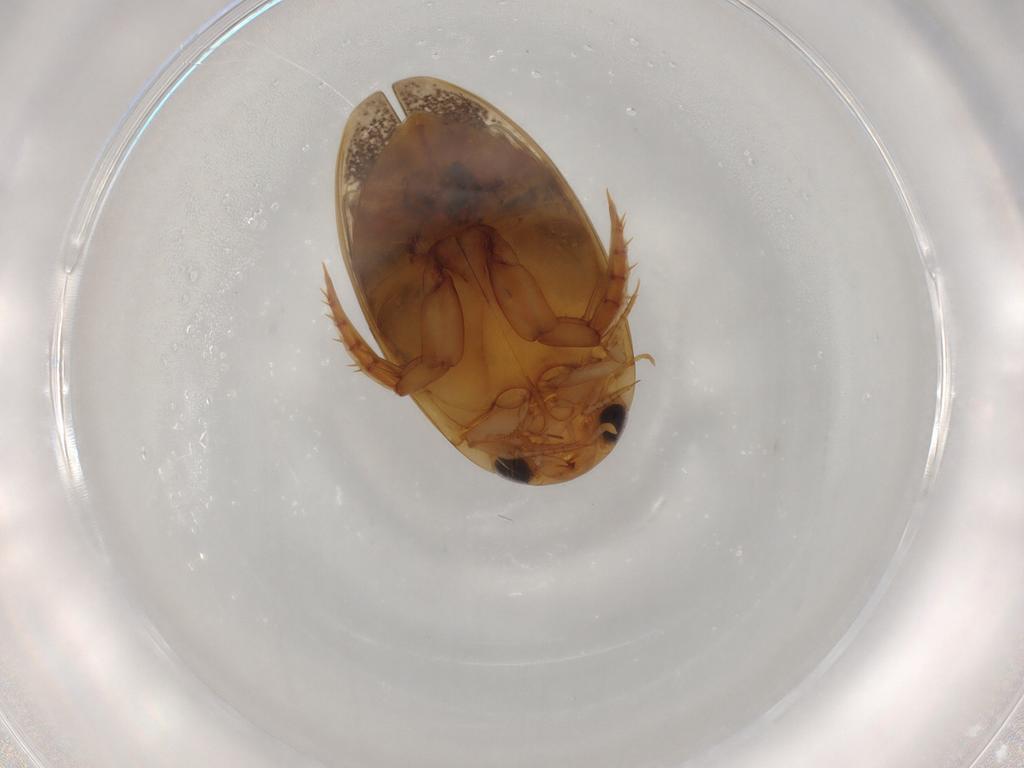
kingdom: Animalia
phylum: Arthropoda
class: Insecta
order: Coleoptera
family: Dytiscidae
